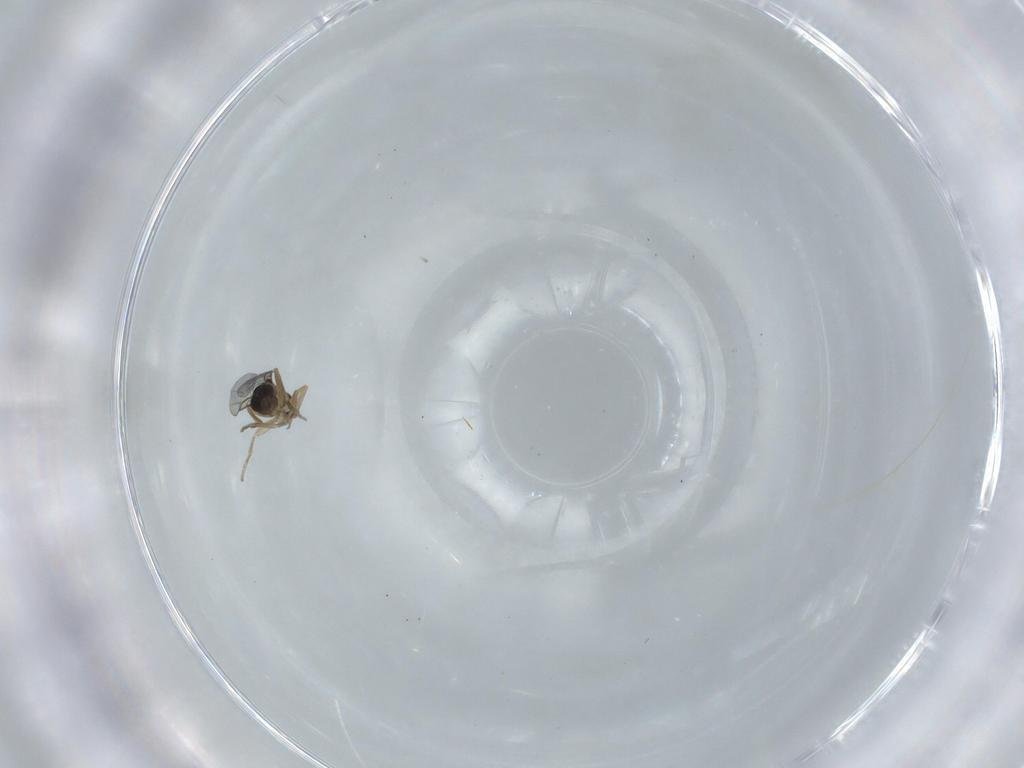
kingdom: Animalia
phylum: Arthropoda
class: Insecta
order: Diptera
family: Phoridae
